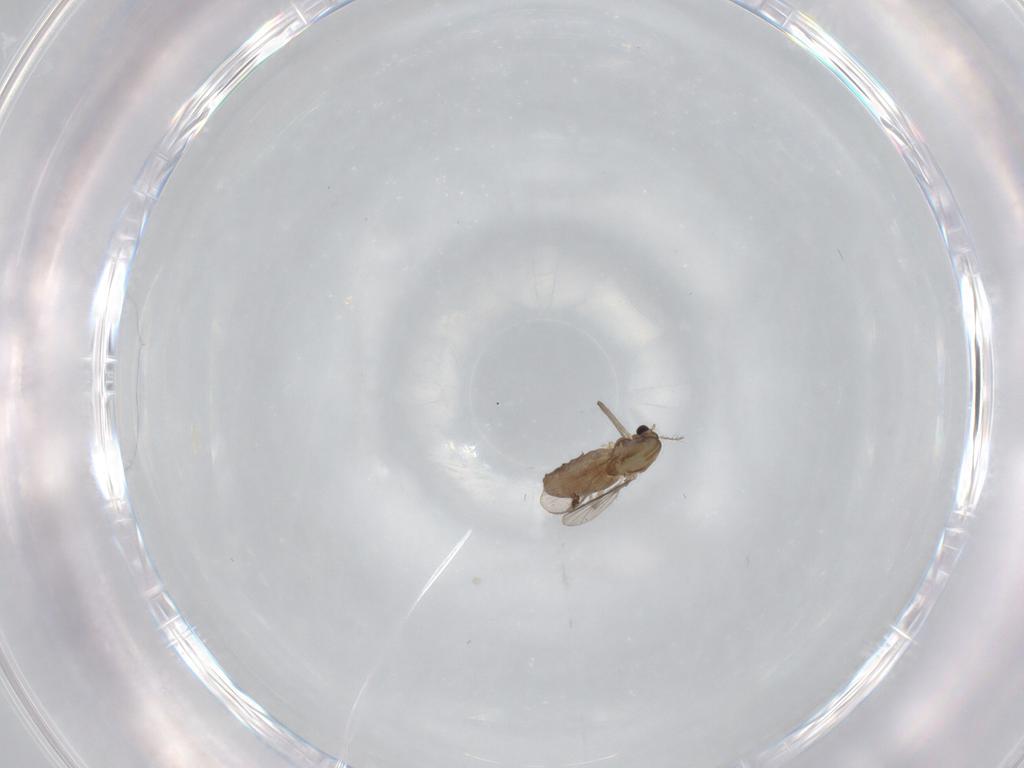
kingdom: Animalia
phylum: Arthropoda
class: Insecta
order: Diptera
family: Chironomidae
